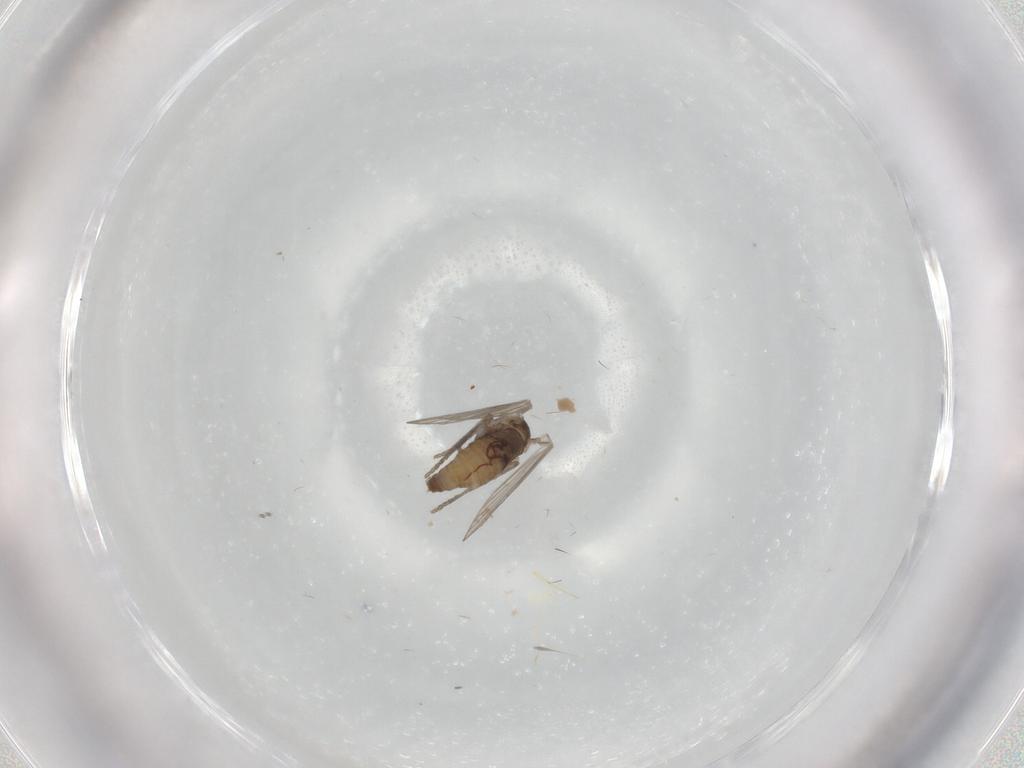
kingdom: Animalia
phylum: Arthropoda
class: Insecta
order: Diptera
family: Psychodidae
